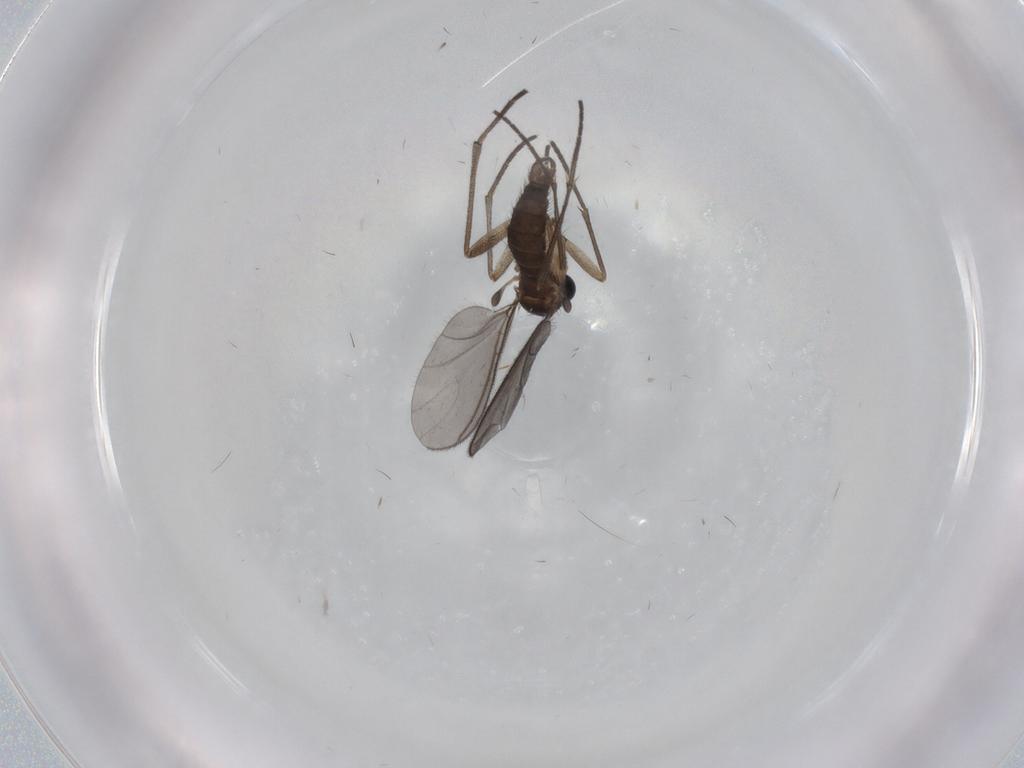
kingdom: Animalia
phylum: Arthropoda
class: Insecta
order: Diptera
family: Sciaridae
